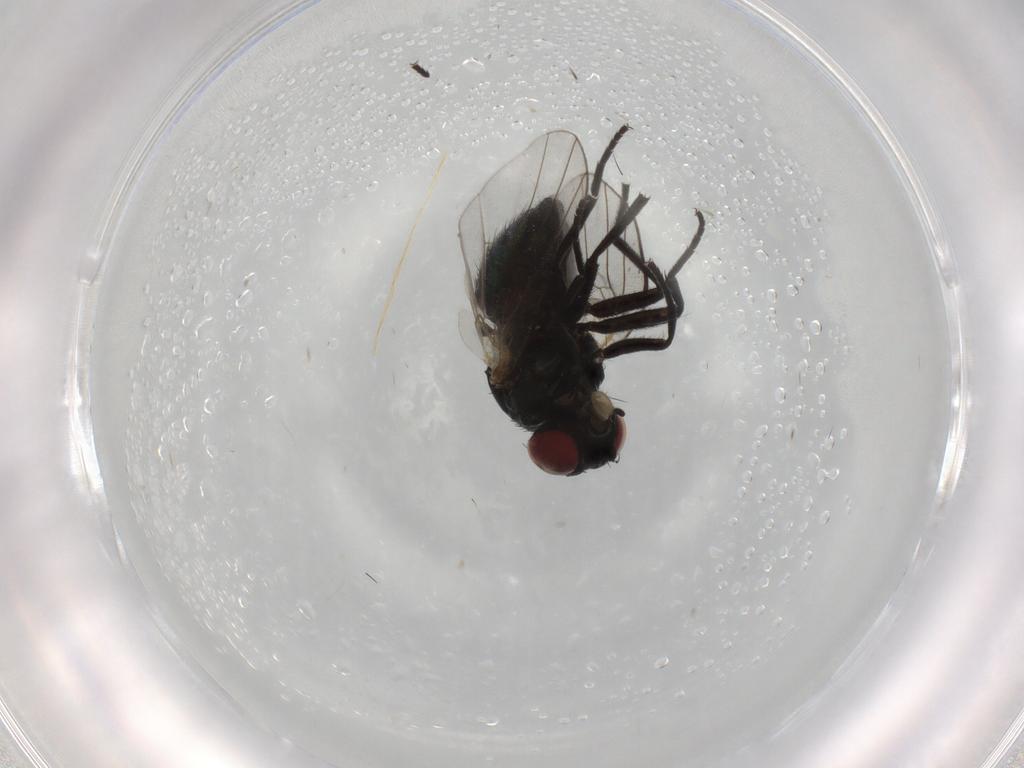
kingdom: Animalia
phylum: Arthropoda
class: Insecta
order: Diptera
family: Agromyzidae
